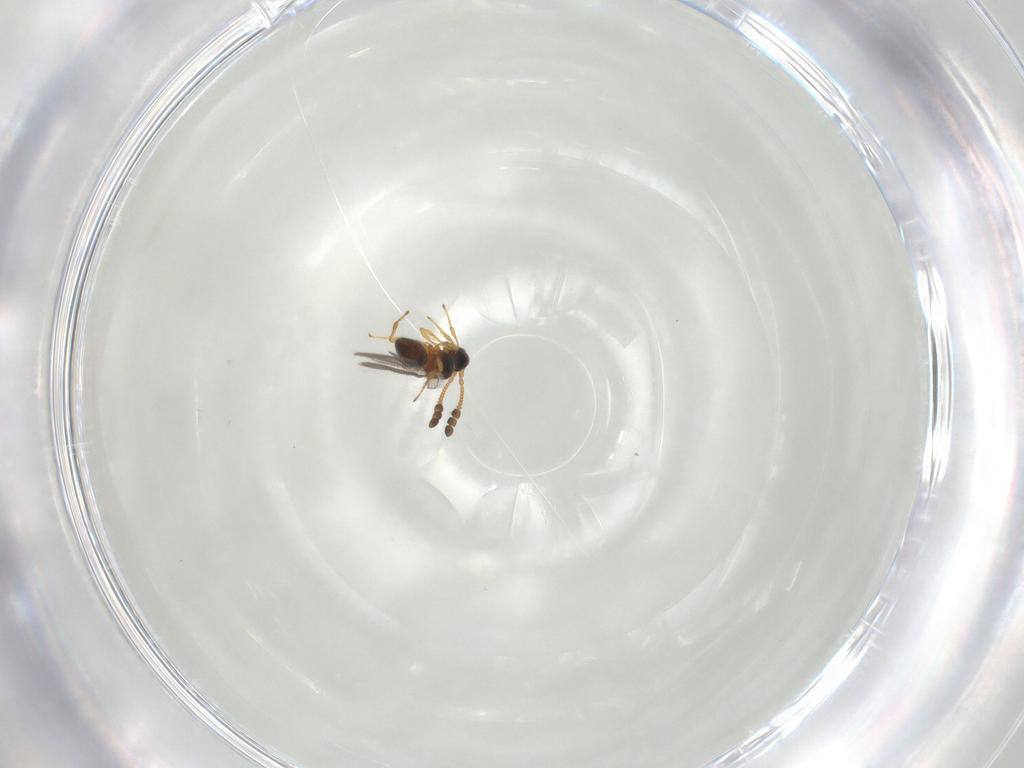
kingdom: Animalia
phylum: Arthropoda
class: Insecta
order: Hymenoptera
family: Diapriidae
